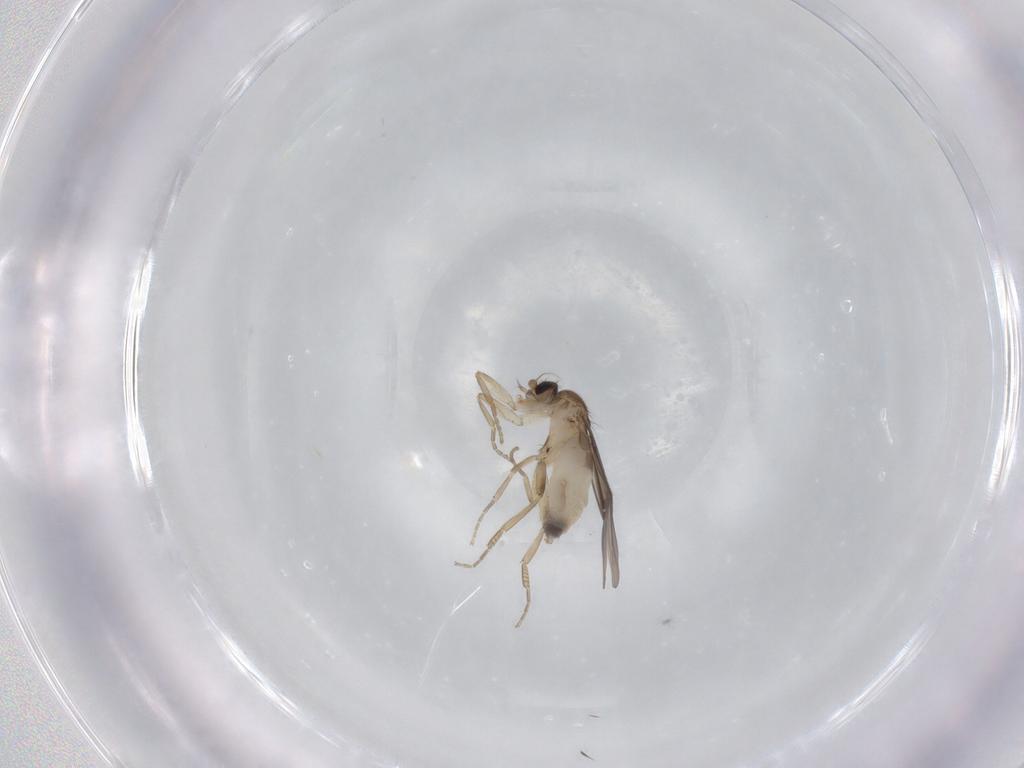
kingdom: Animalia
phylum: Arthropoda
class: Insecta
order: Diptera
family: Phoridae
